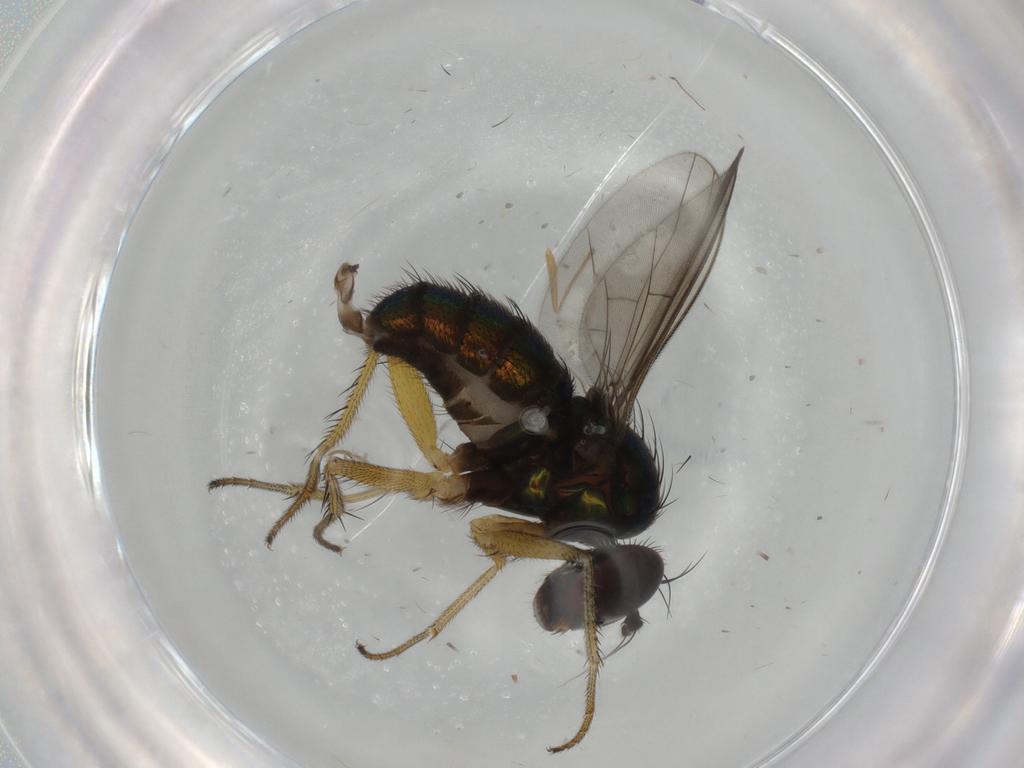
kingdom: Animalia
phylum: Arthropoda
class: Insecta
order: Diptera
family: Dolichopodidae
